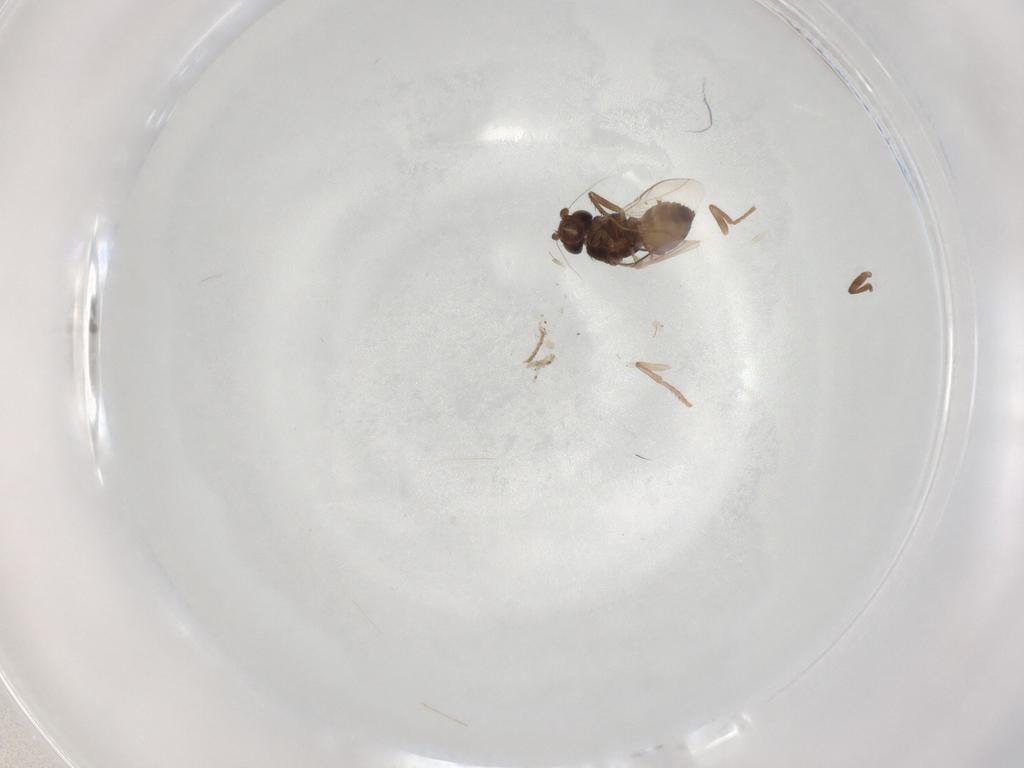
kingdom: Animalia
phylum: Arthropoda
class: Insecta
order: Diptera
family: Sphaeroceridae
